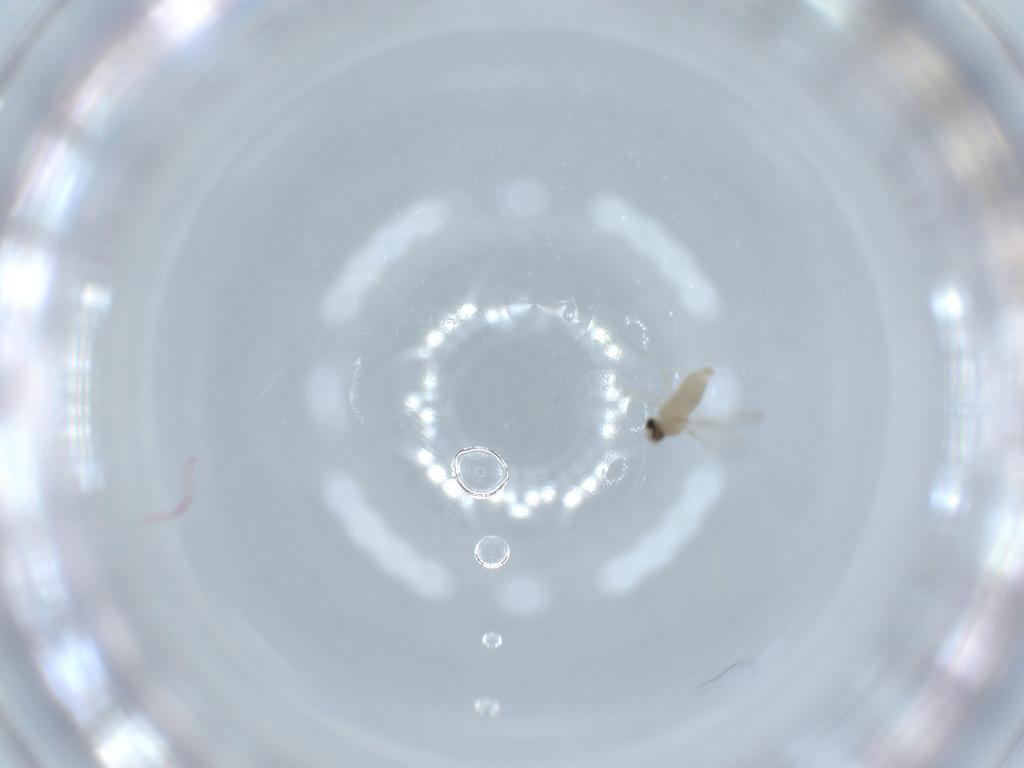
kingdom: Animalia
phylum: Arthropoda
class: Insecta
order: Diptera
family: Cecidomyiidae
